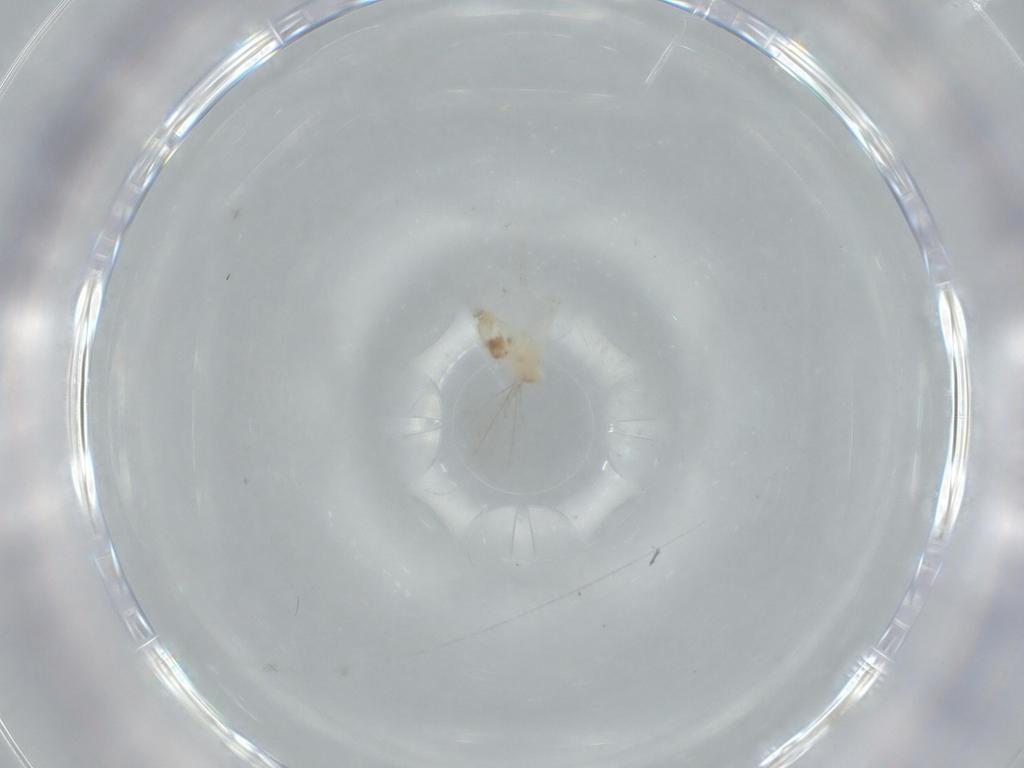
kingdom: Animalia
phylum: Arthropoda
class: Insecta
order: Diptera
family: Cecidomyiidae
